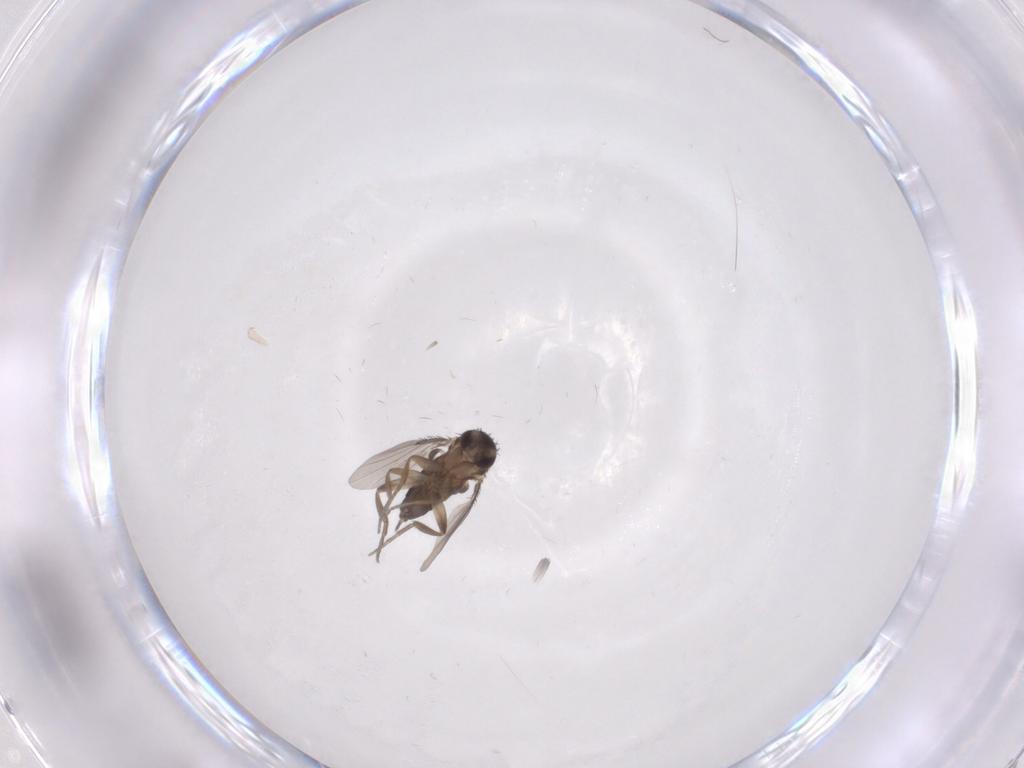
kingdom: Animalia
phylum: Arthropoda
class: Insecta
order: Diptera
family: Phoridae
